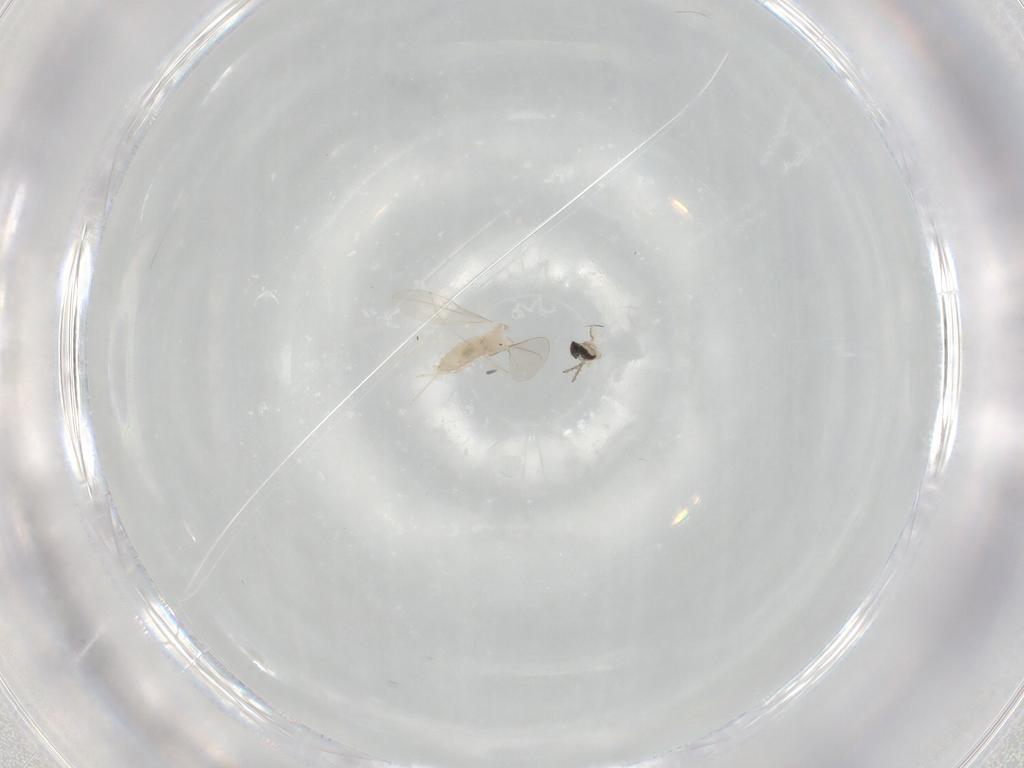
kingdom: Animalia
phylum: Arthropoda
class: Insecta
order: Diptera
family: Cecidomyiidae
